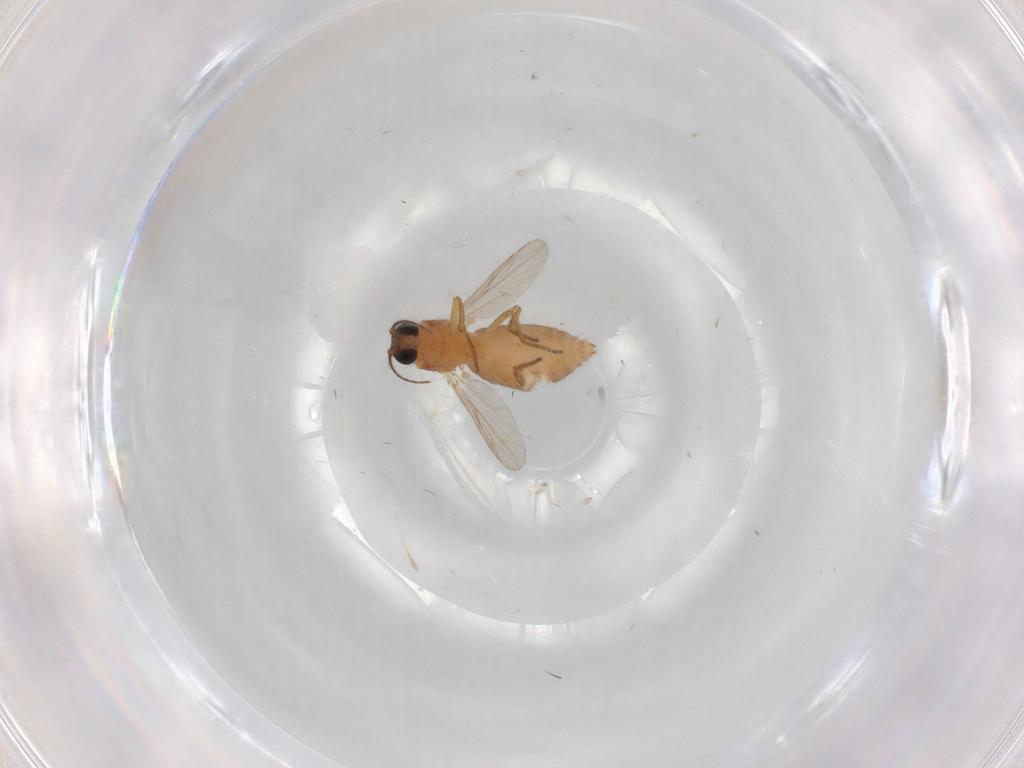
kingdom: Animalia
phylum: Arthropoda
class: Insecta
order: Diptera
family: Ceratopogonidae
